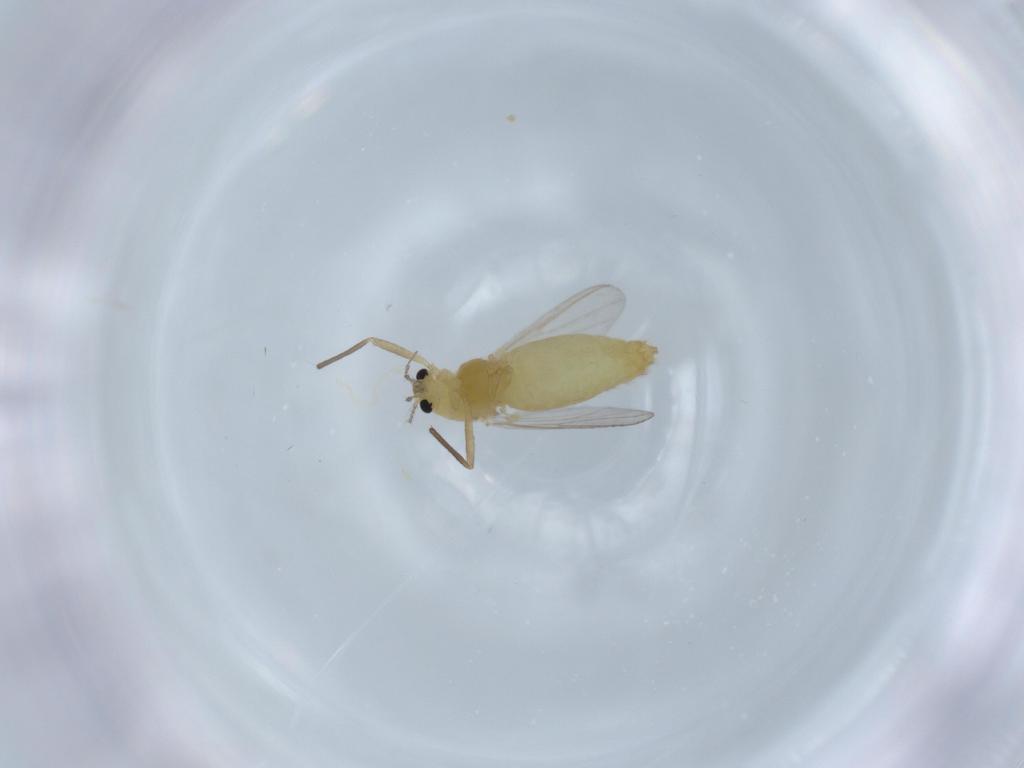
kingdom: Animalia
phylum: Arthropoda
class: Insecta
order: Diptera
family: Chironomidae
